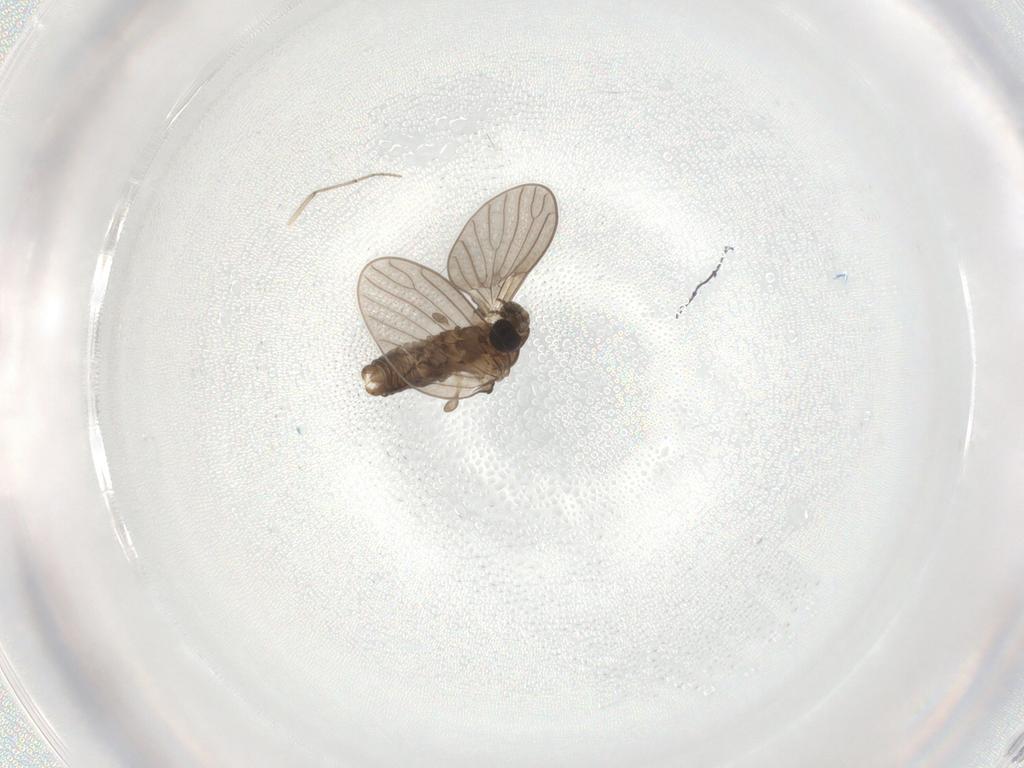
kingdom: Animalia
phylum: Arthropoda
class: Insecta
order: Diptera
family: Psychodidae
